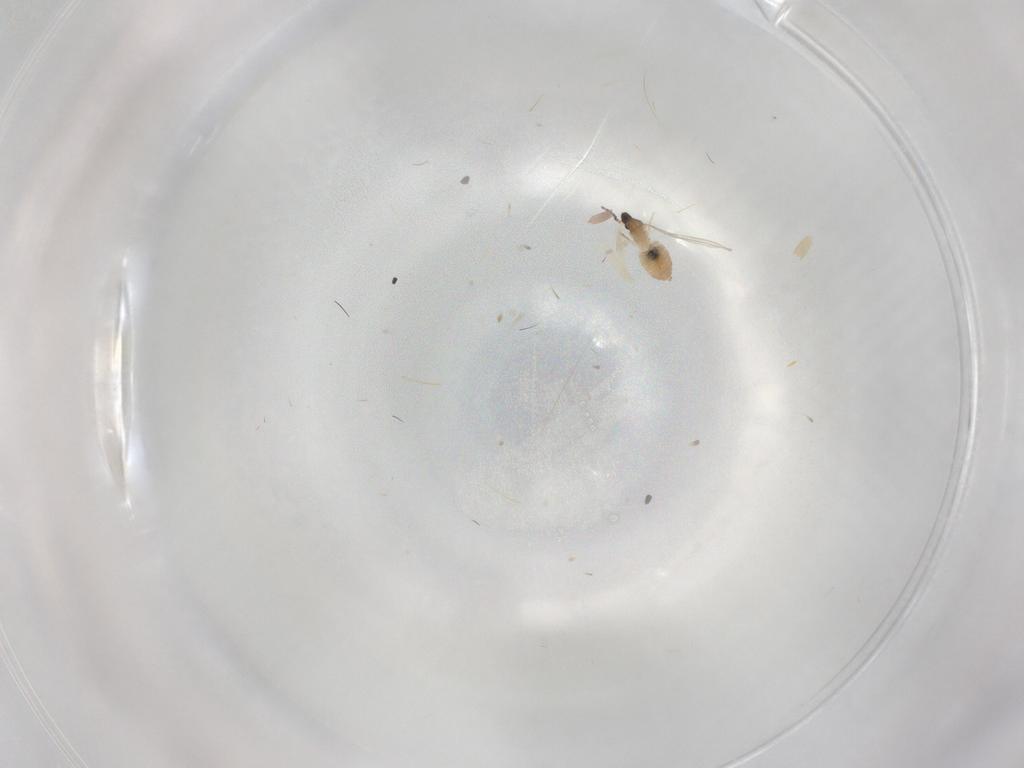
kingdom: Animalia
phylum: Arthropoda
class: Insecta
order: Diptera
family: Cecidomyiidae
